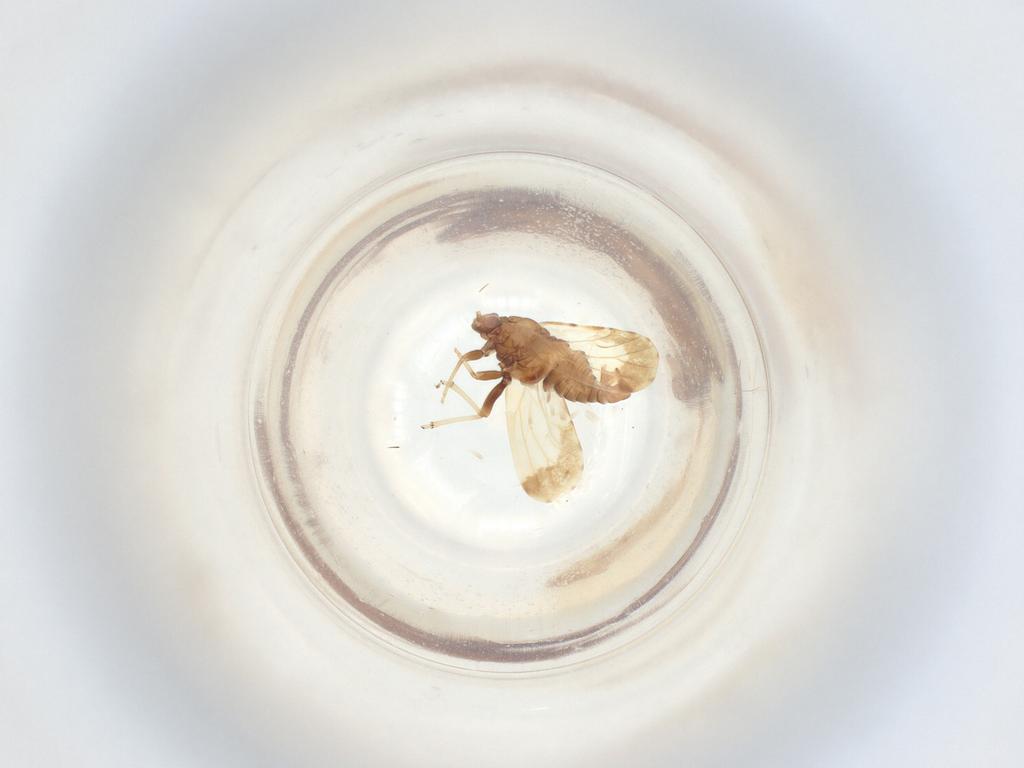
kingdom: Animalia
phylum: Arthropoda
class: Insecta
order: Hemiptera
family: Psyllidae
